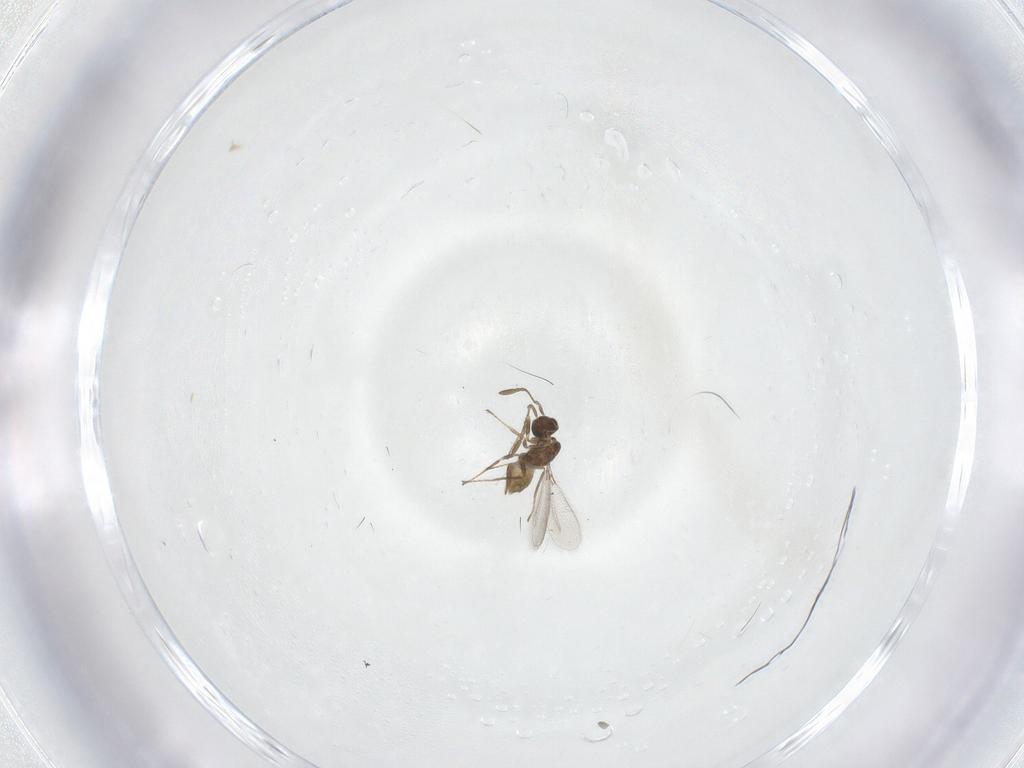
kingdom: Animalia
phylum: Arthropoda
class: Insecta
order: Hymenoptera
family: Mymaridae
